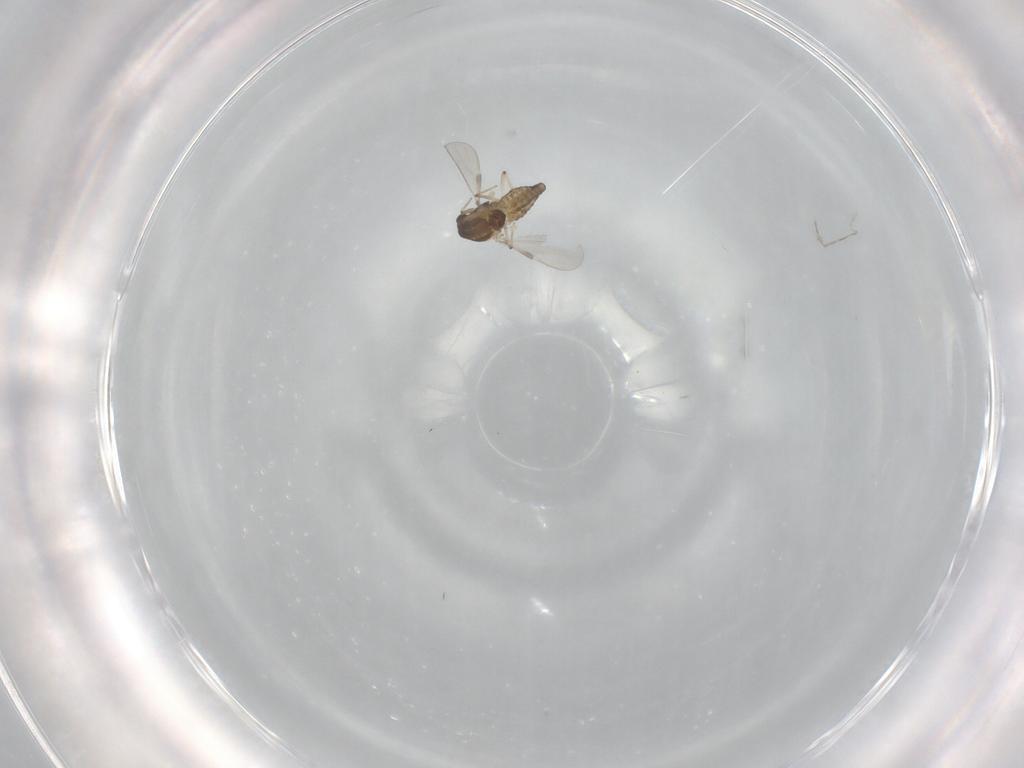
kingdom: Animalia
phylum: Arthropoda
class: Insecta
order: Diptera
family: Chironomidae
